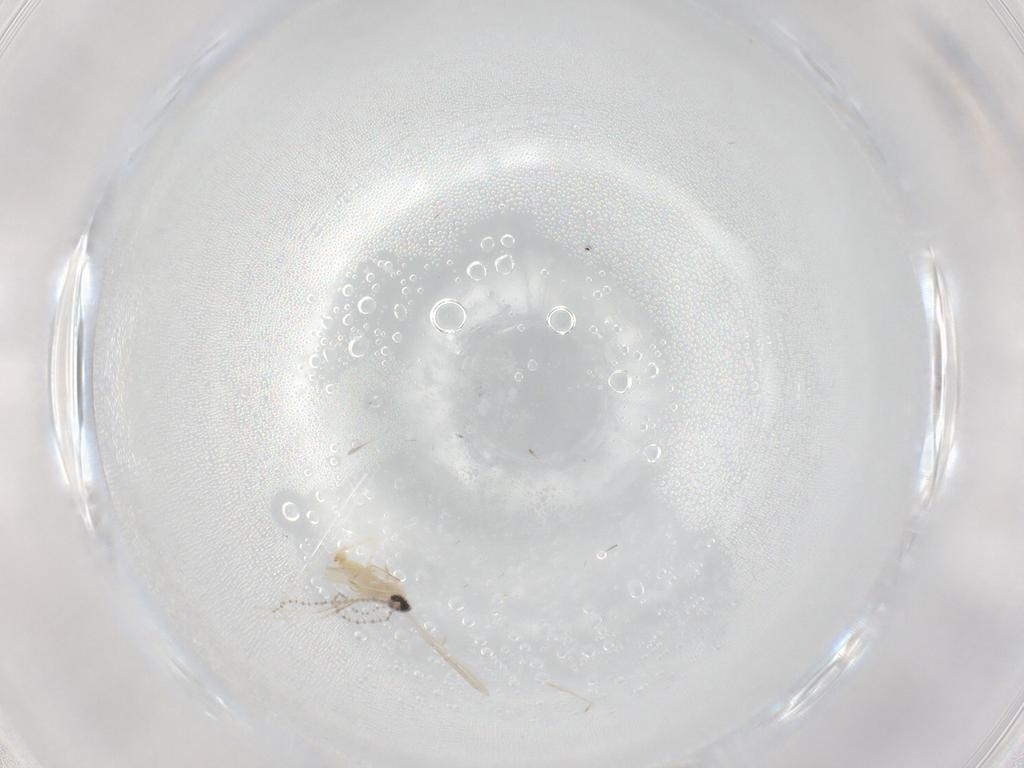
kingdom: Animalia
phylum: Arthropoda
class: Insecta
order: Diptera
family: Cecidomyiidae
